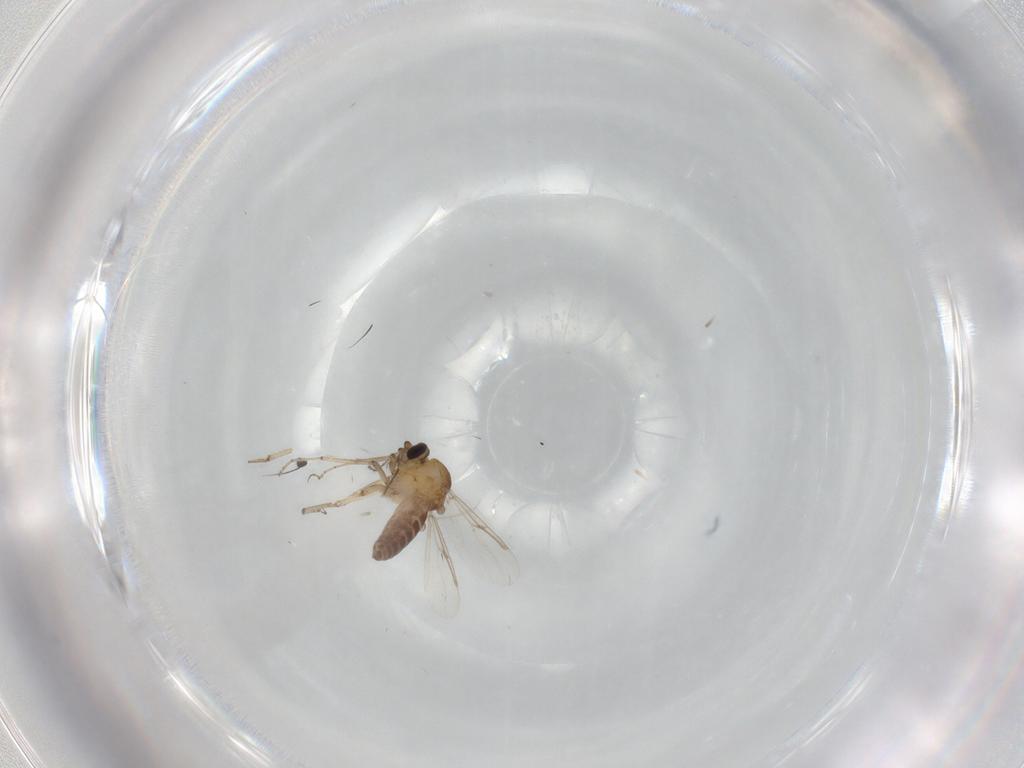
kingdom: Animalia
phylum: Arthropoda
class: Insecta
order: Diptera
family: Ceratopogonidae
